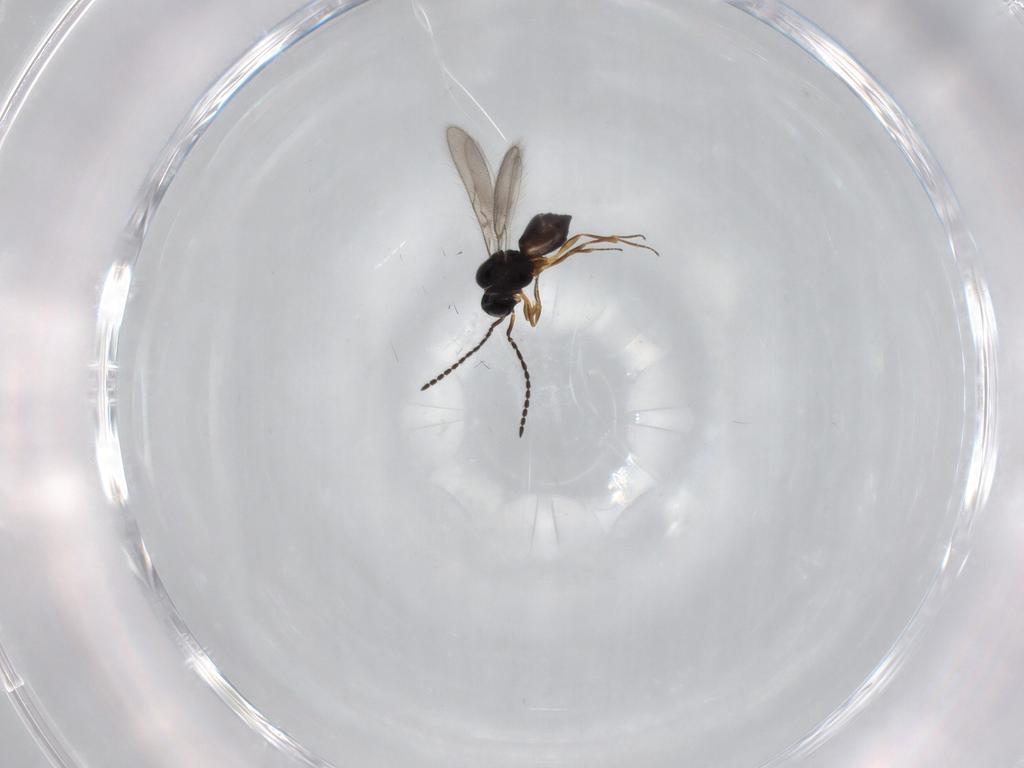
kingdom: Animalia
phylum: Arthropoda
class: Insecta
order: Hymenoptera
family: Scelionidae
